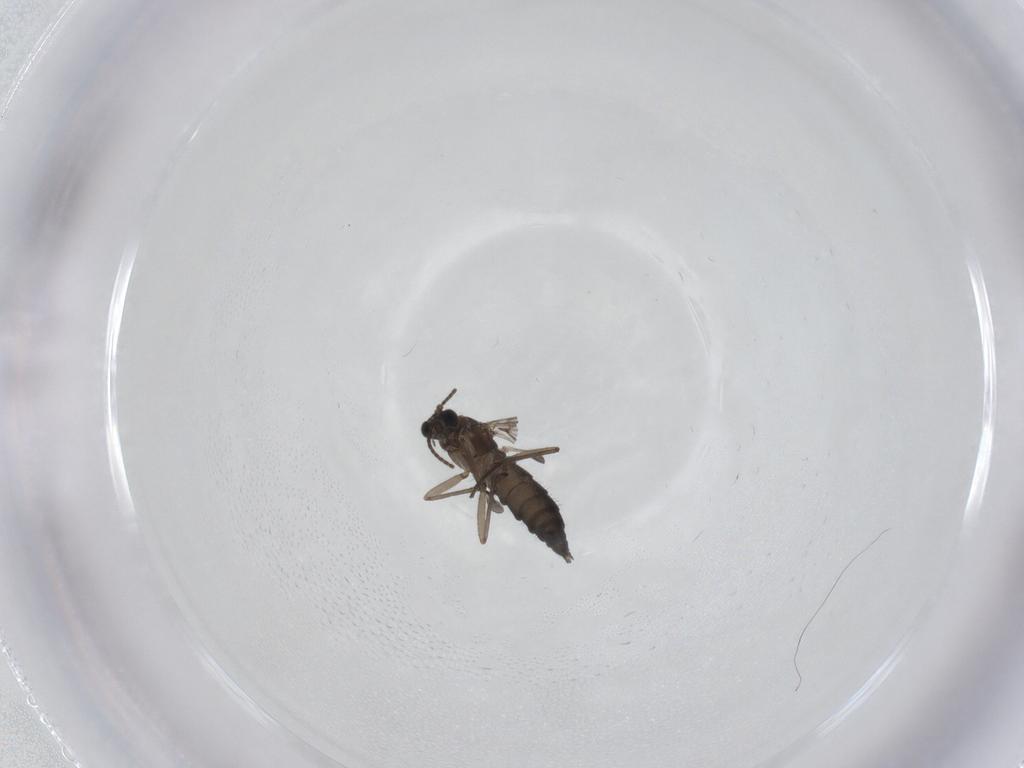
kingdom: Animalia
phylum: Arthropoda
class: Insecta
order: Diptera
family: Sciaridae
